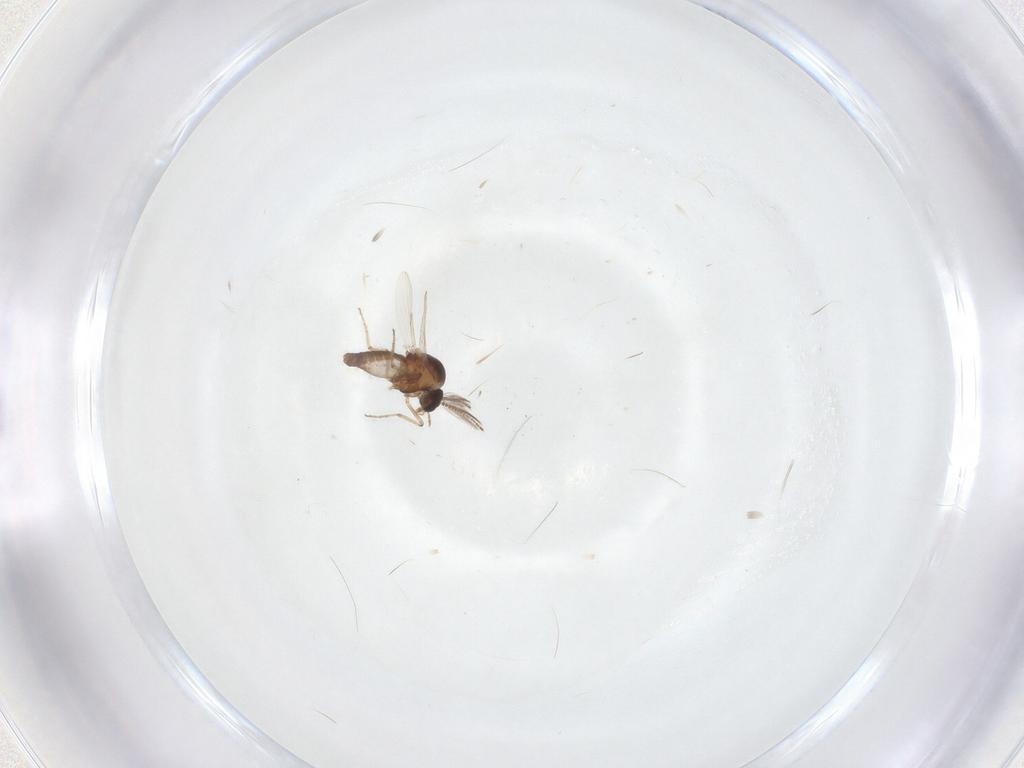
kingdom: Animalia
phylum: Arthropoda
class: Insecta
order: Diptera
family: Ceratopogonidae
